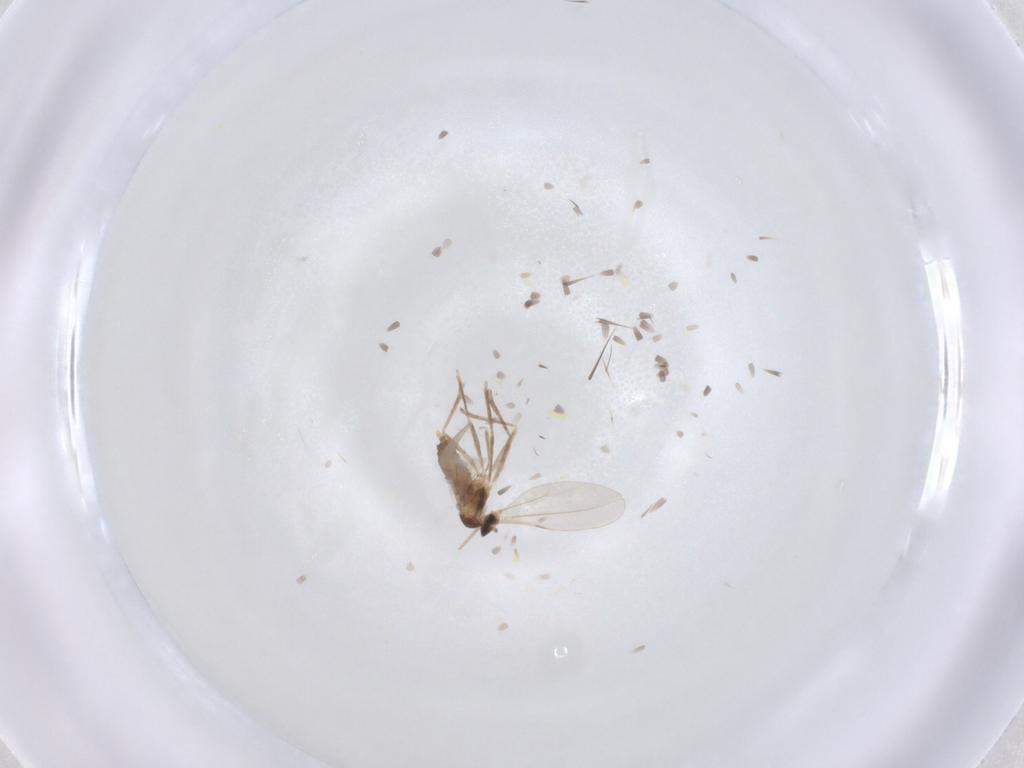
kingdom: Animalia
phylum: Arthropoda
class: Insecta
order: Diptera
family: Cecidomyiidae
